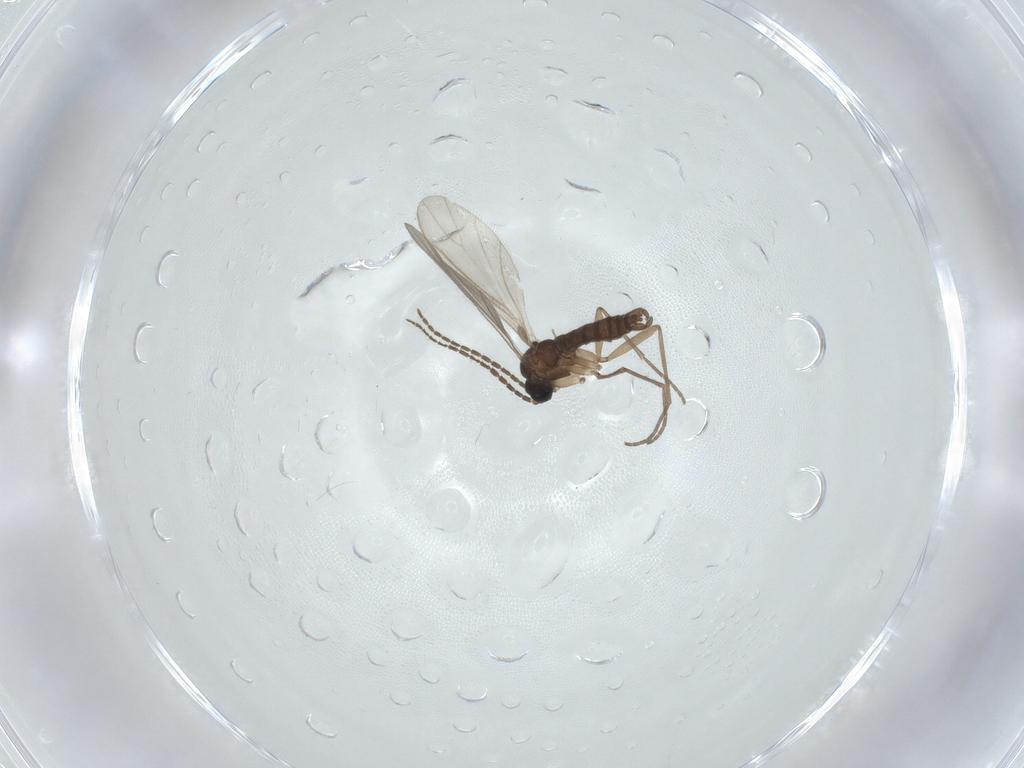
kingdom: Animalia
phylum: Arthropoda
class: Insecta
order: Diptera
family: Sciaridae
